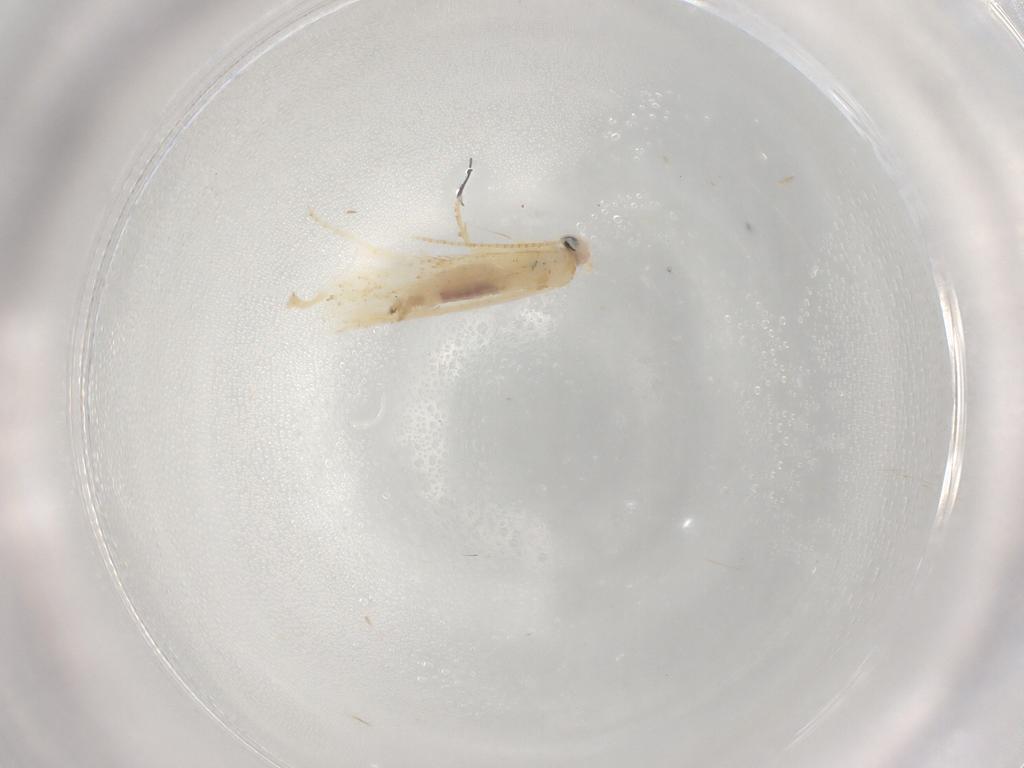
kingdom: Animalia
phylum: Arthropoda
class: Insecta
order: Lepidoptera
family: Depressariidae
